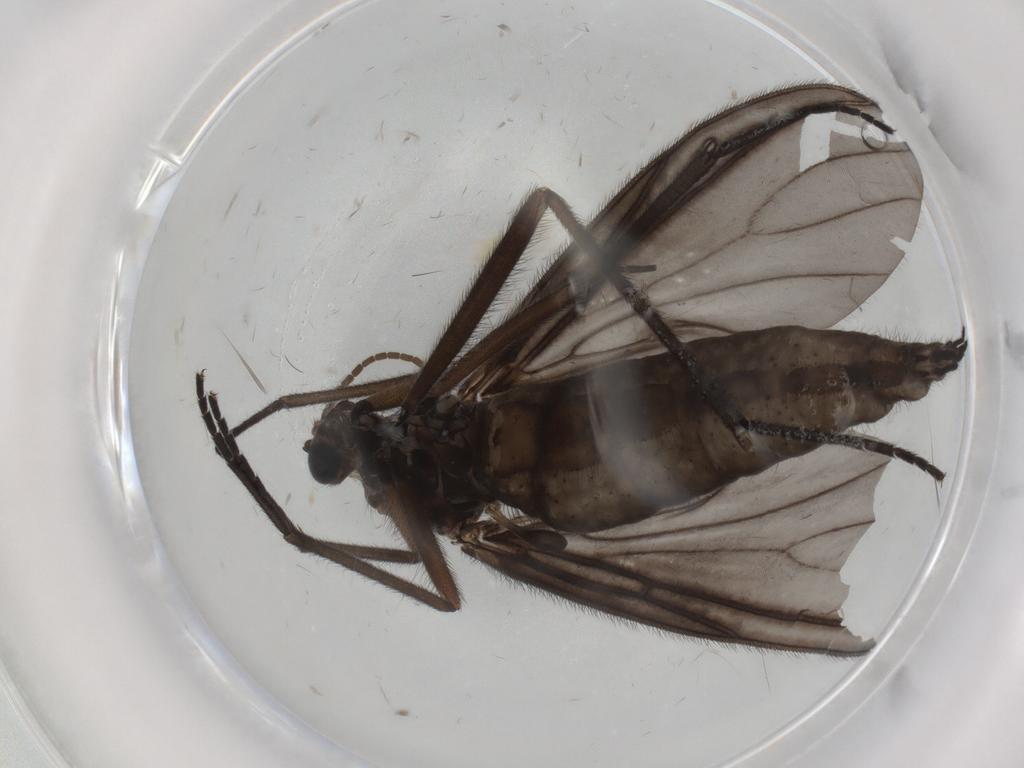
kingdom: Animalia
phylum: Arthropoda
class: Insecta
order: Diptera
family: Sciaridae
